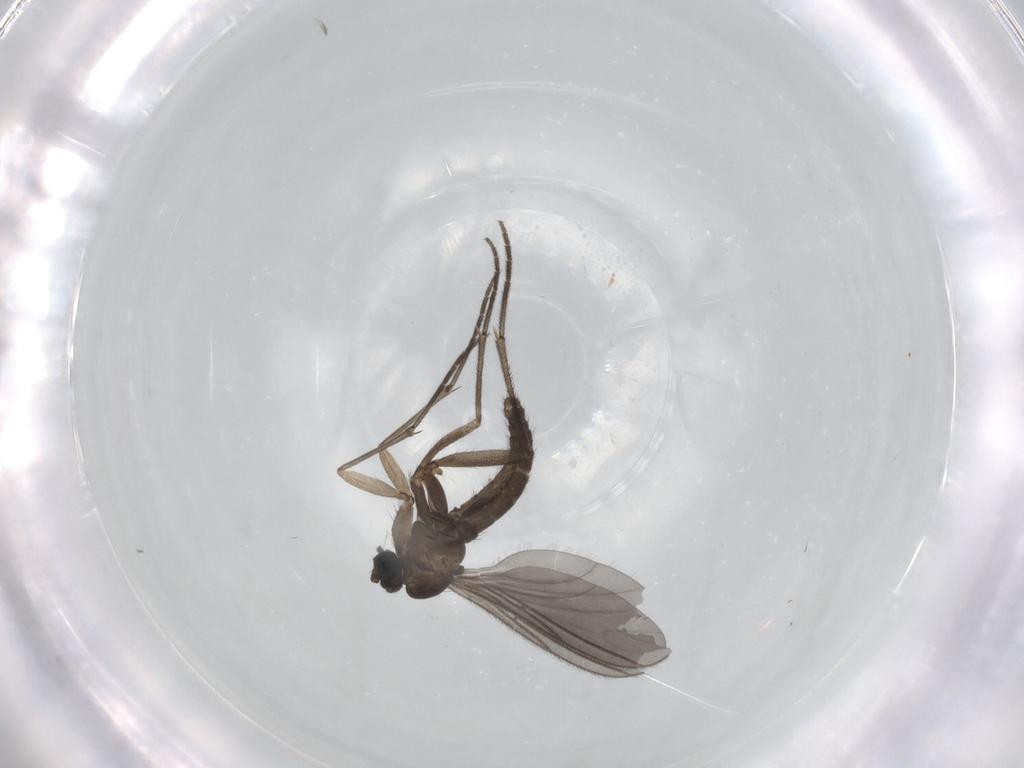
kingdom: Animalia
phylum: Arthropoda
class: Insecta
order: Diptera
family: Sciaridae
